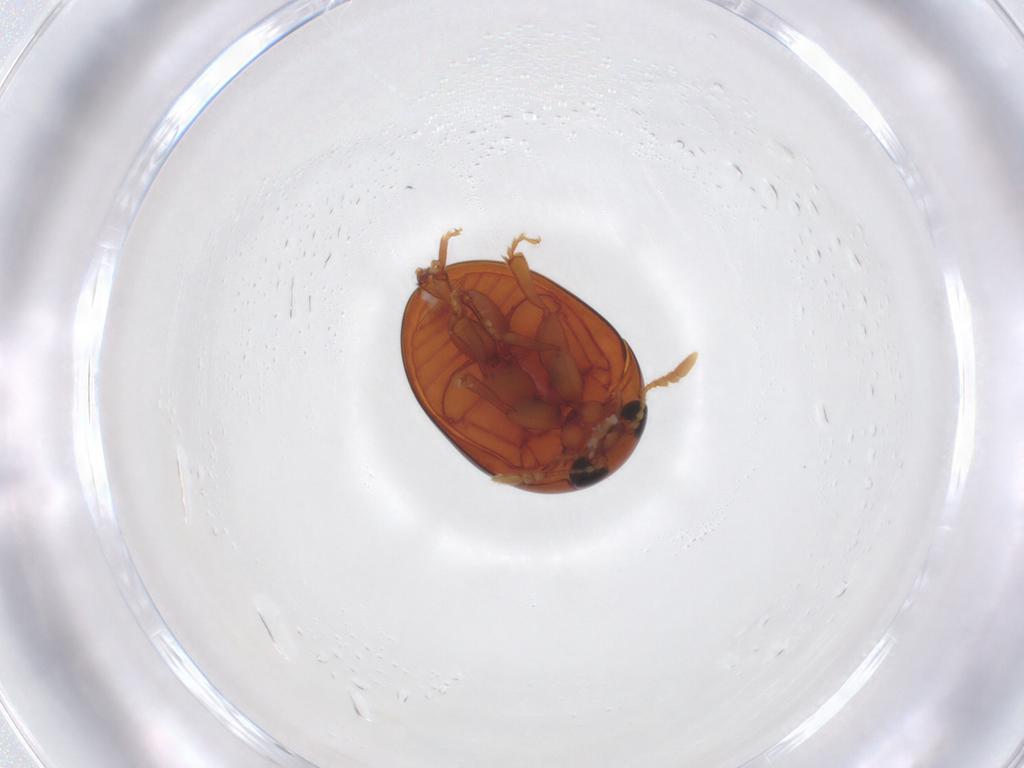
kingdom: Animalia
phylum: Arthropoda
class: Insecta
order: Coleoptera
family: Phalacridae
